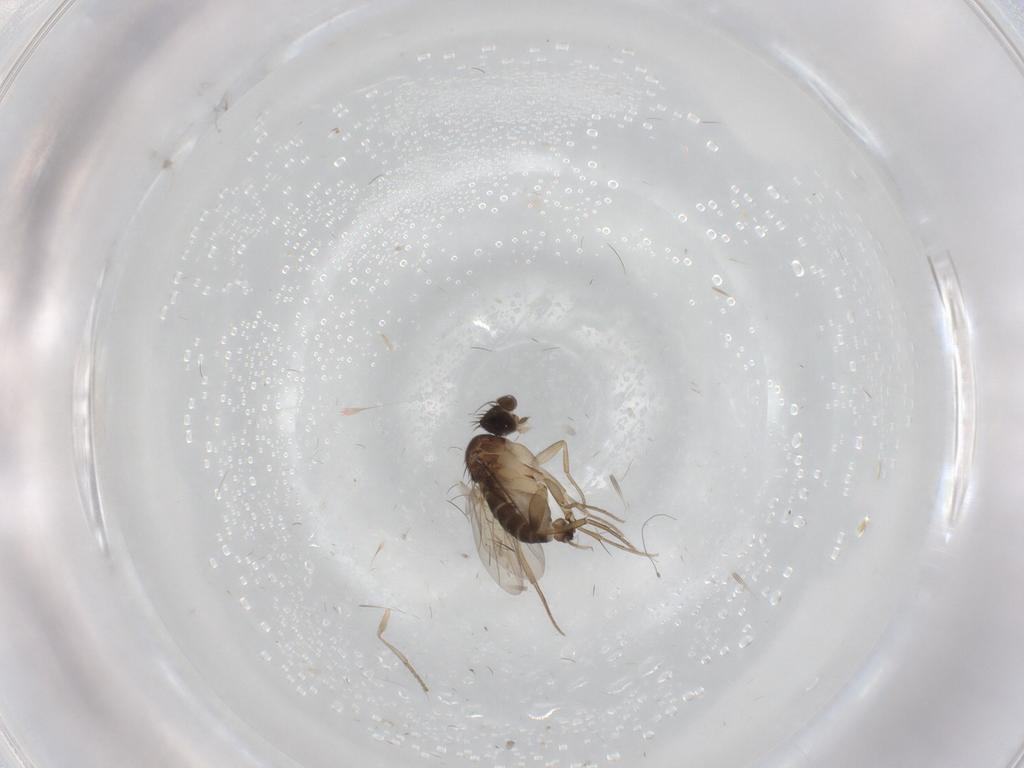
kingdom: Animalia
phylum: Arthropoda
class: Insecta
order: Diptera
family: Phoridae
